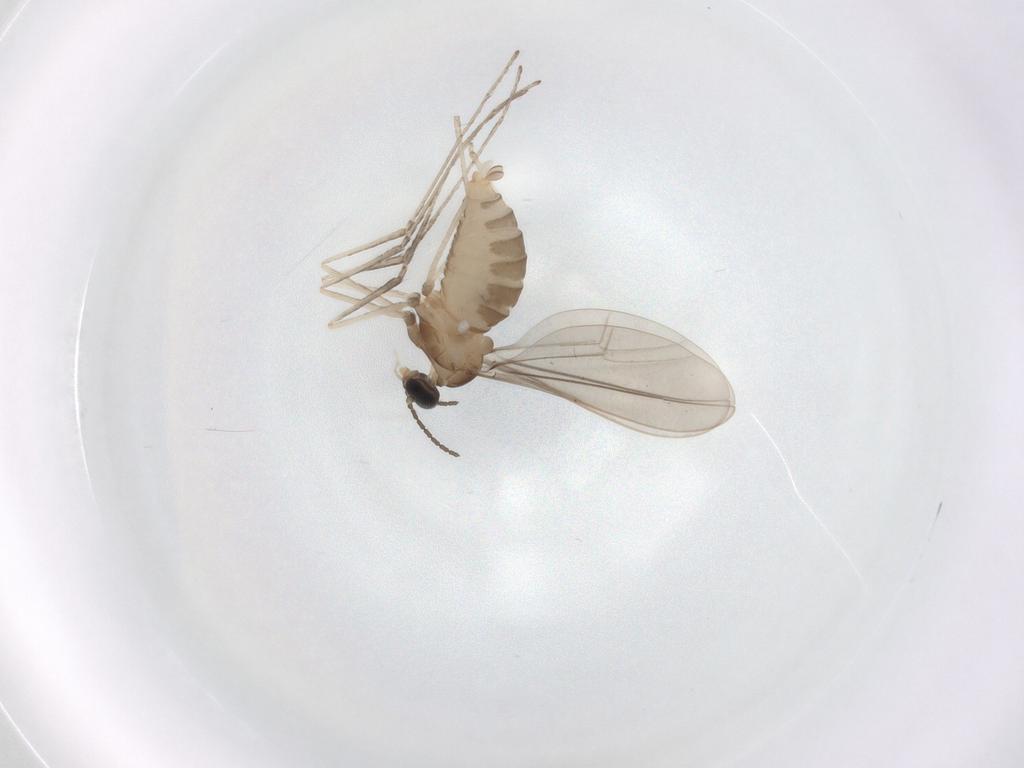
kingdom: Animalia
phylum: Arthropoda
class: Insecta
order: Diptera
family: Cecidomyiidae
